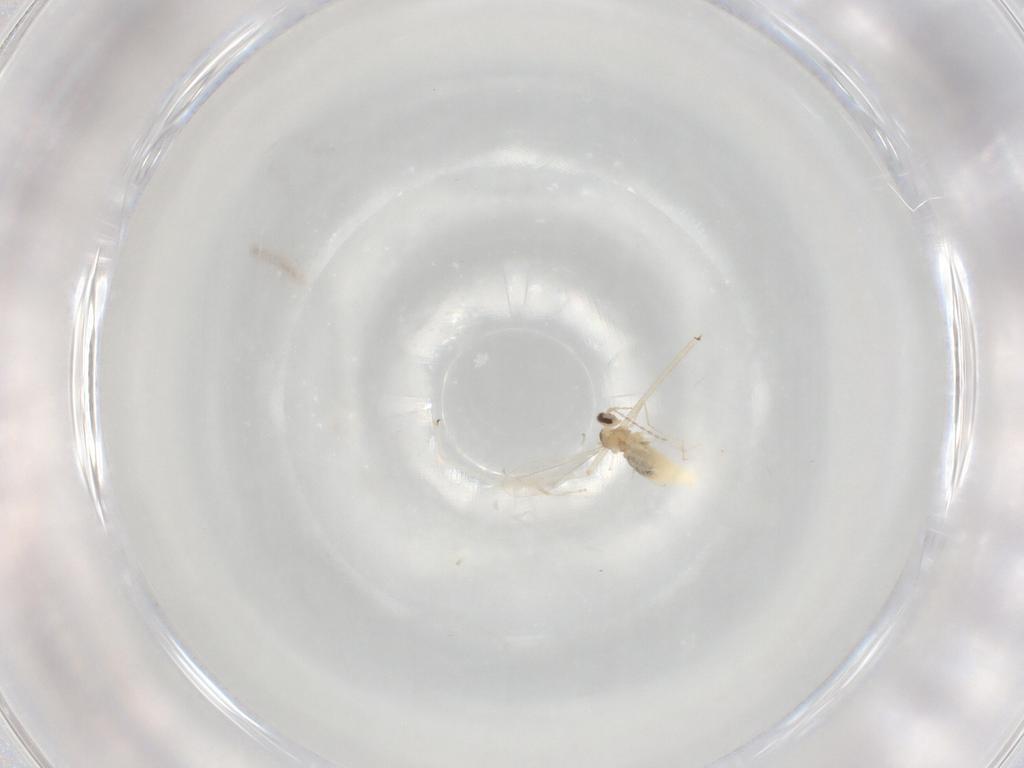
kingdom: Animalia
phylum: Arthropoda
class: Insecta
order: Diptera
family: Cecidomyiidae
